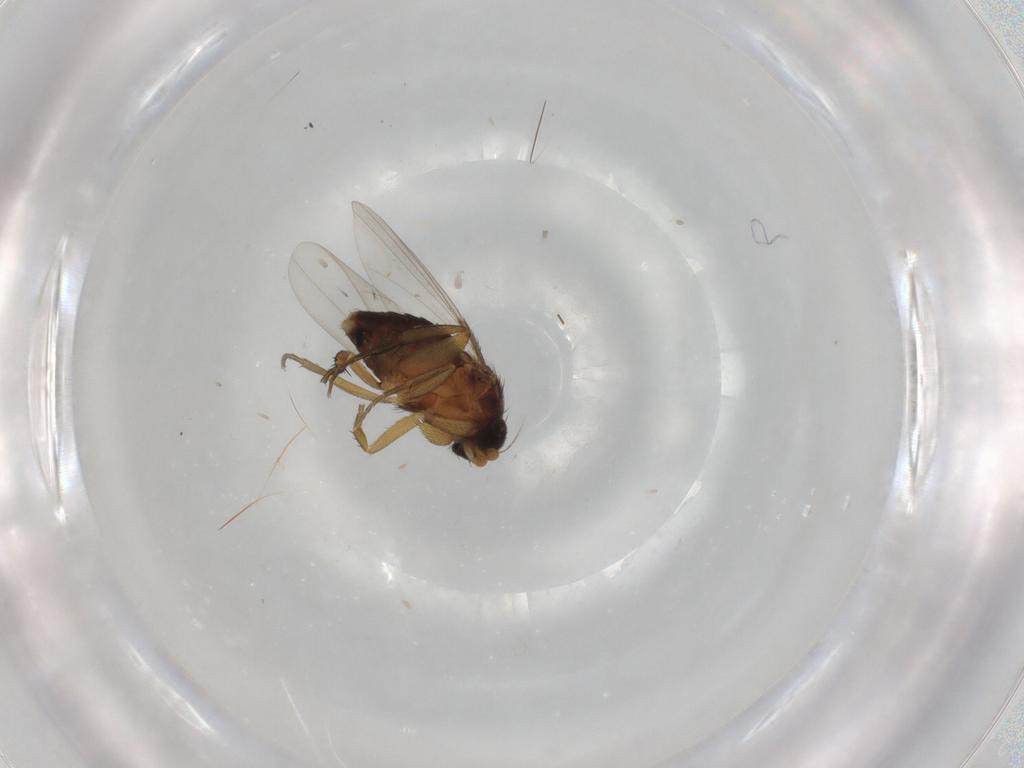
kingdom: Animalia
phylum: Arthropoda
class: Insecta
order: Diptera
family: Phoridae
